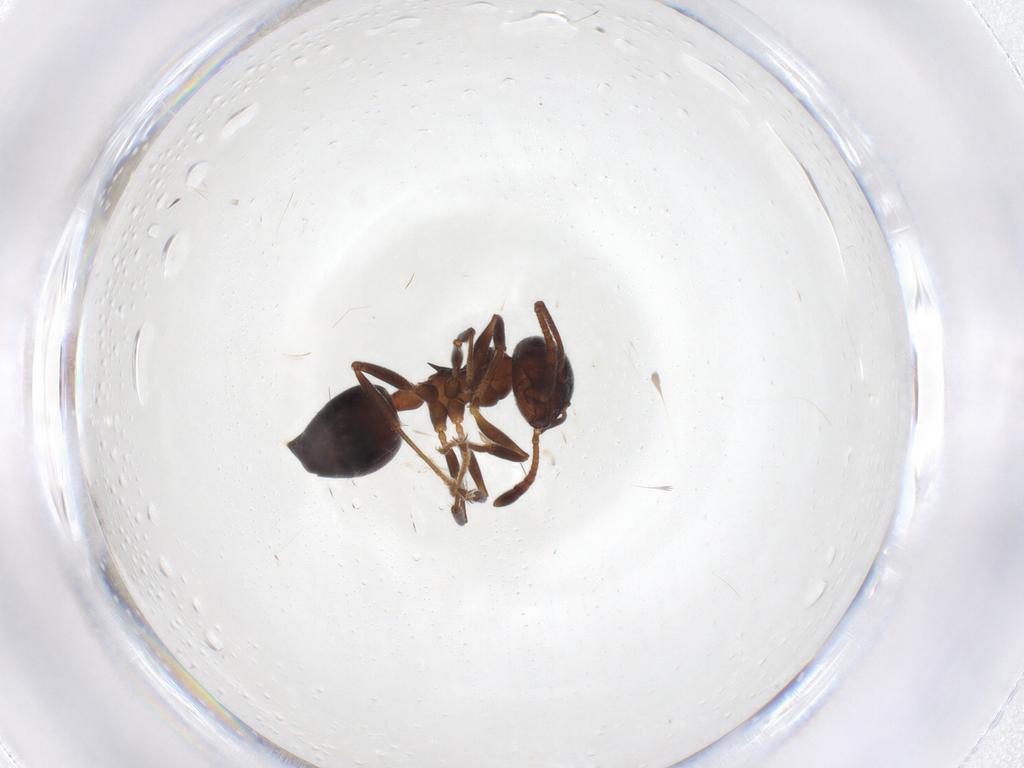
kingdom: Animalia
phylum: Arthropoda
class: Insecta
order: Hymenoptera
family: Formicidae
